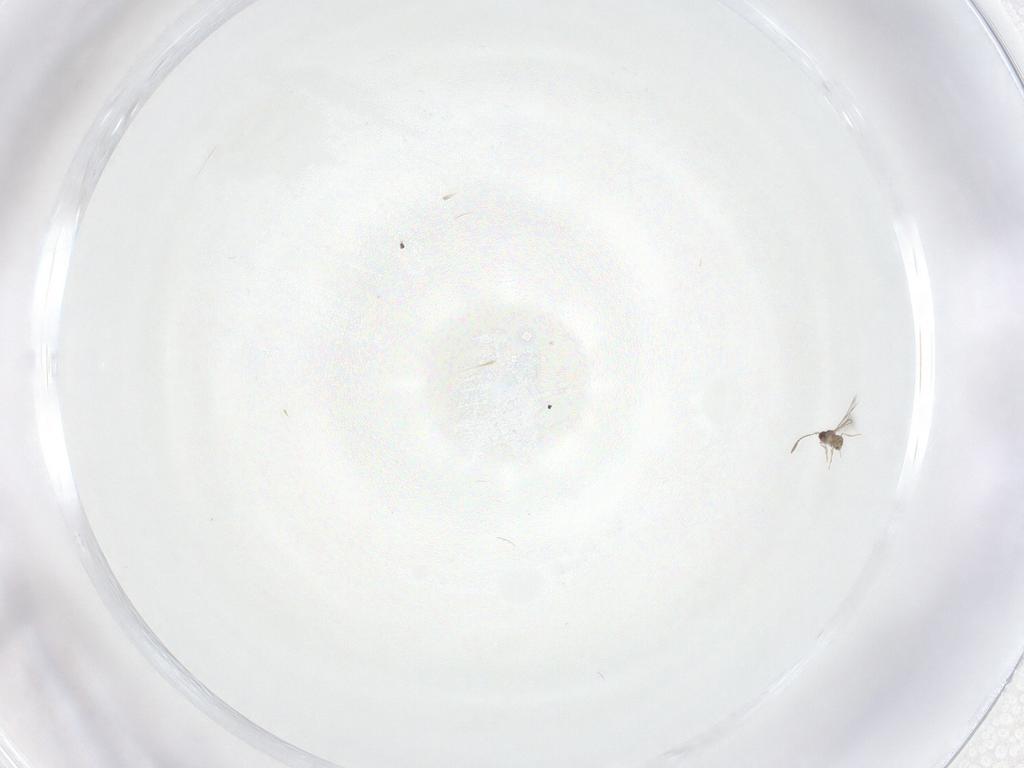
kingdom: Animalia
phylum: Arthropoda
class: Insecta
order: Hymenoptera
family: Mymaridae
